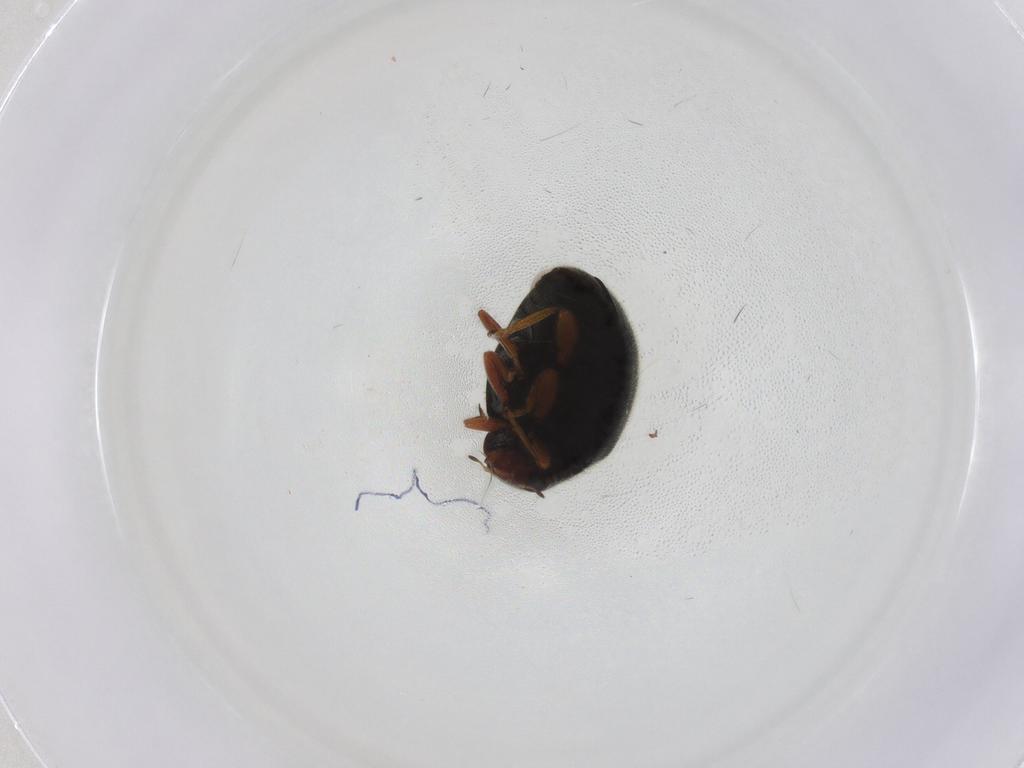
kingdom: Animalia
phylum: Arthropoda
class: Insecta
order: Coleoptera
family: Coccinellidae
